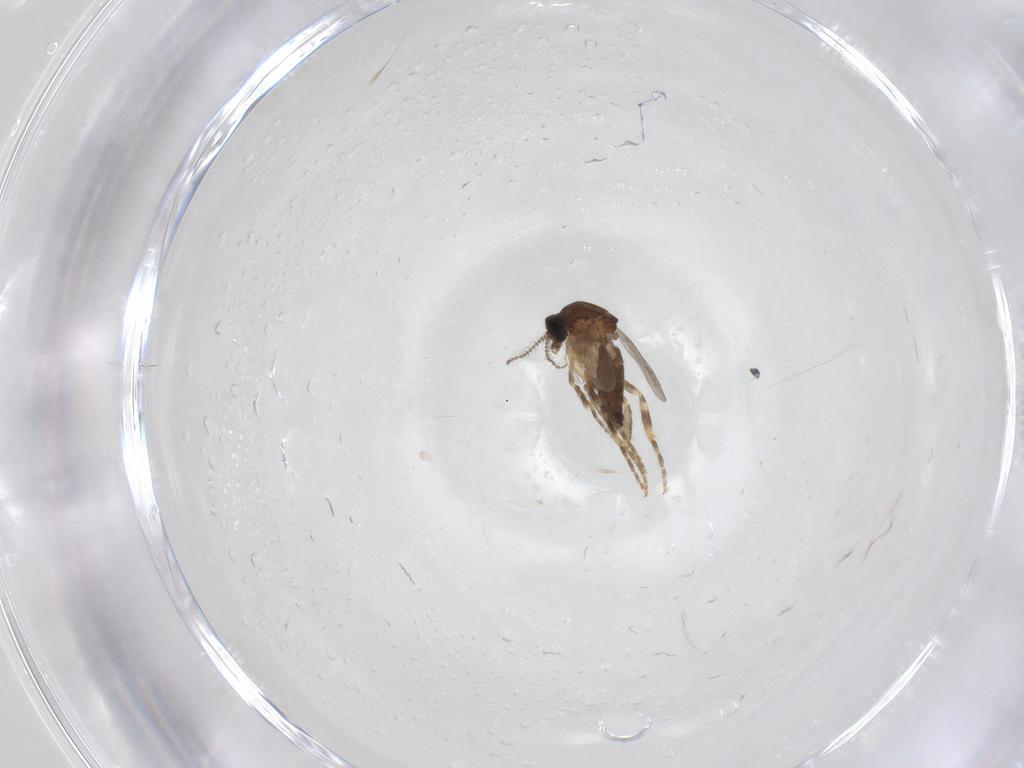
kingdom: Animalia
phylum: Arthropoda
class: Insecta
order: Diptera
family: Ceratopogonidae
